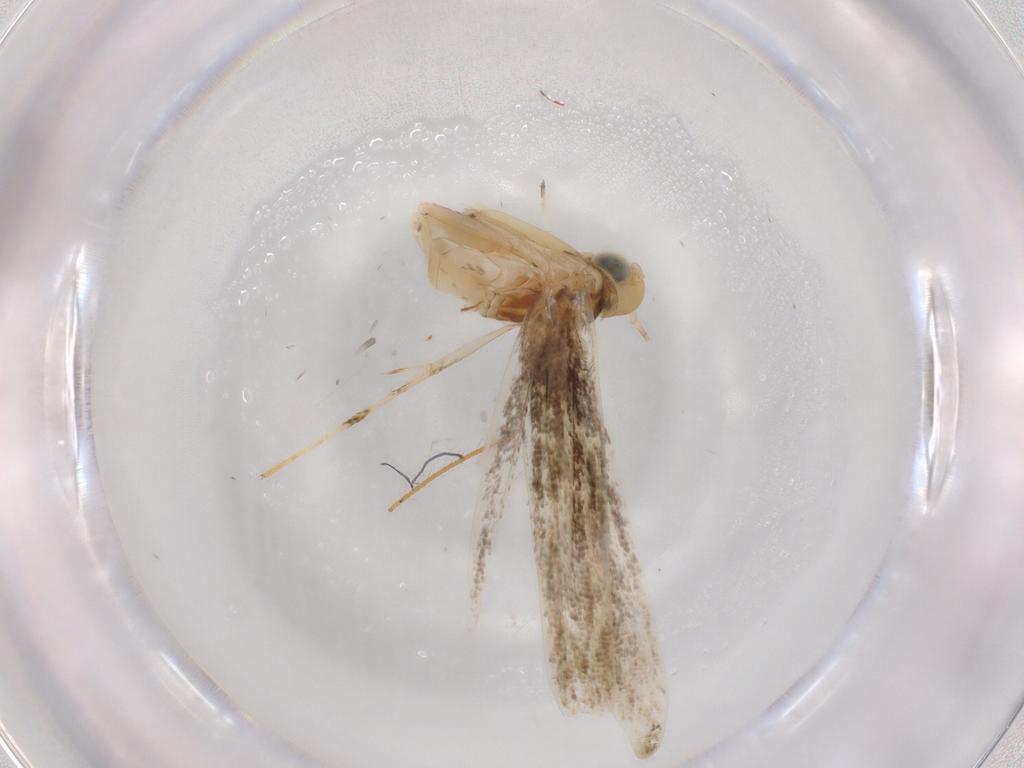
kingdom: Animalia
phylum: Arthropoda
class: Insecta
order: Lepidoptera
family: Gracillariidae
